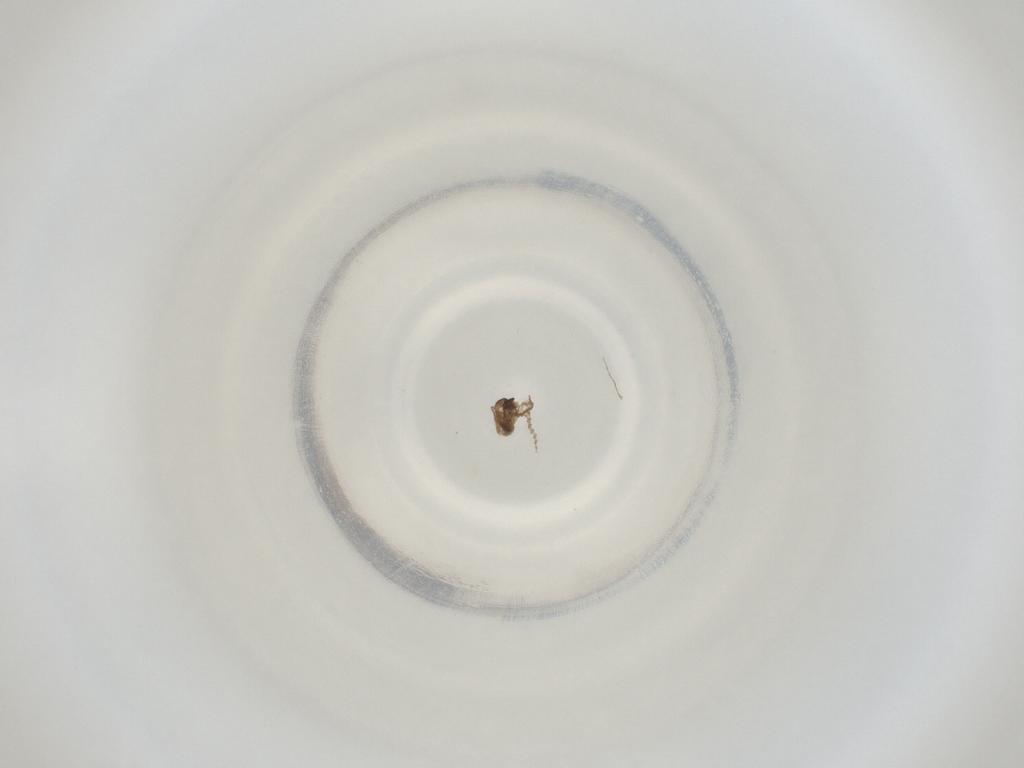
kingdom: Animalia
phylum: Arthropoda
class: Insecta
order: Diptera
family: Cecidomyiidae
